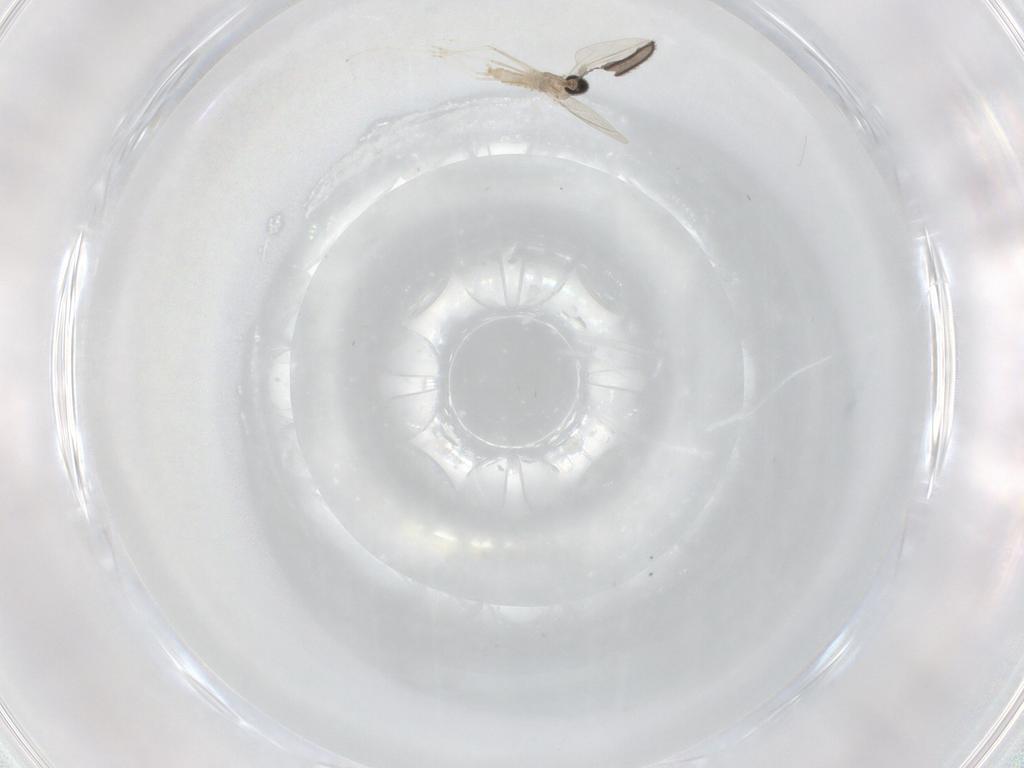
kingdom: Animalia
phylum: Arthropoda
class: Insecta
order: Diptera
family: Cecidomyiidae
